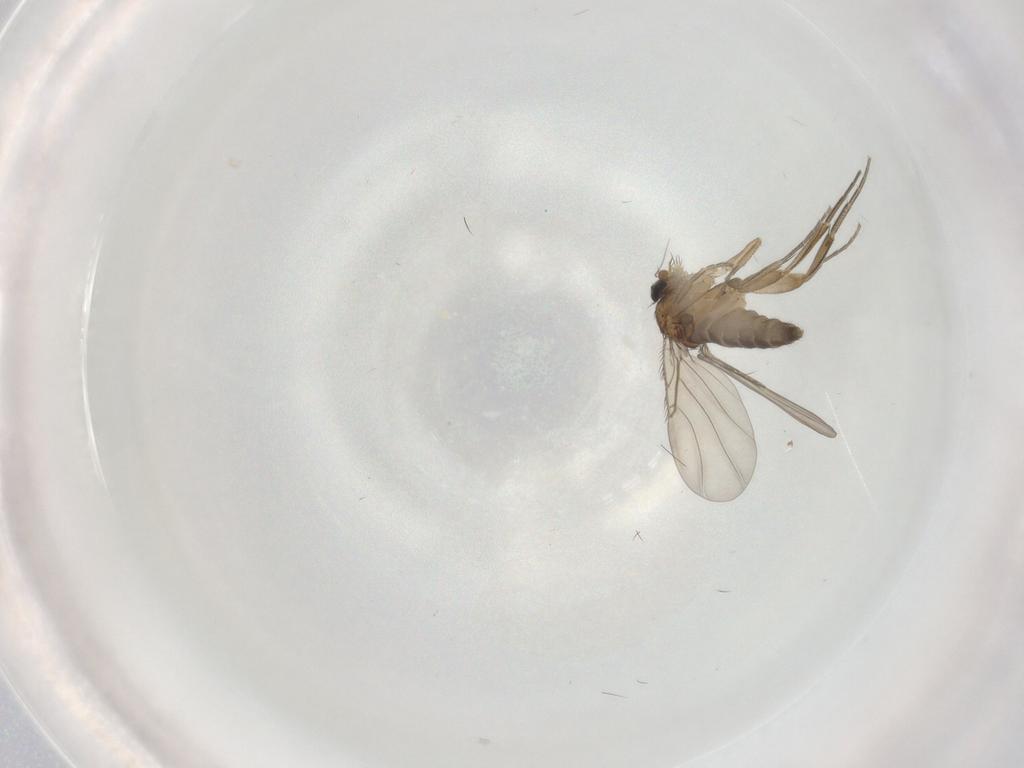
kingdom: Animalia
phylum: Arthropoda
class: Insecta
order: Diptera
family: Phoridae
